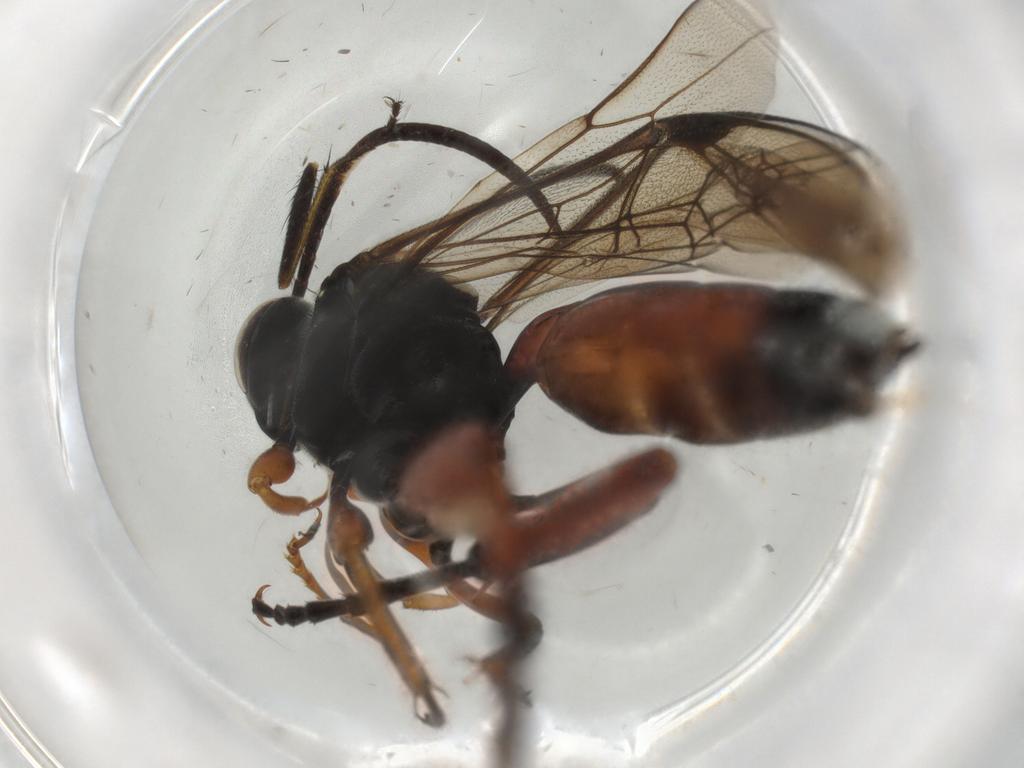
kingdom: Animalia
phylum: Arthropoda
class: Insecta
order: Hymenoptera
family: Ichneumonidae
